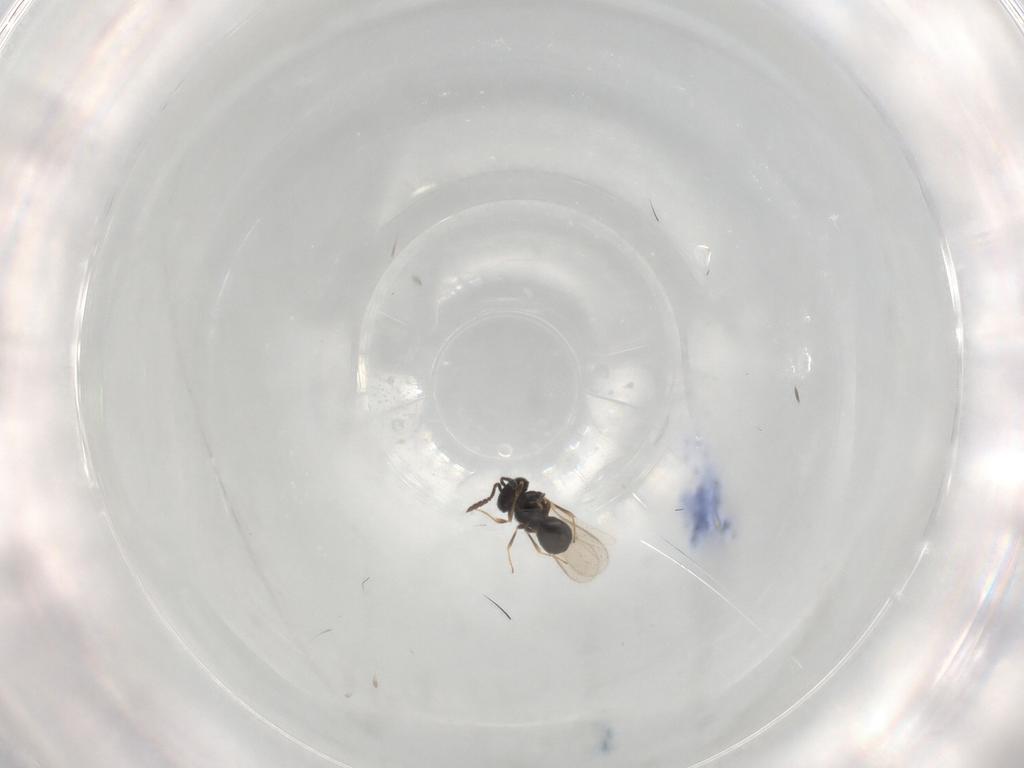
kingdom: Animalia
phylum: Arthropoda
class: Insecta
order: Hymenoptera
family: Scelionidae
